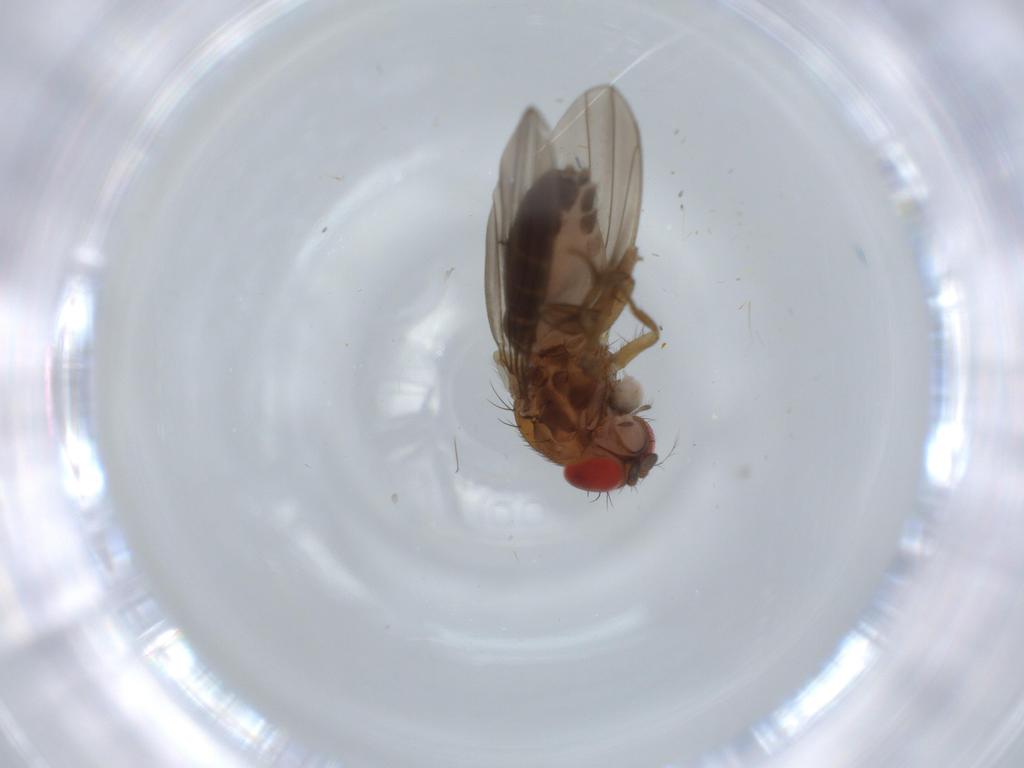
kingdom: Animalia
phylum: Arthropoda
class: Insecta
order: Diptera
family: Drosophilidae
